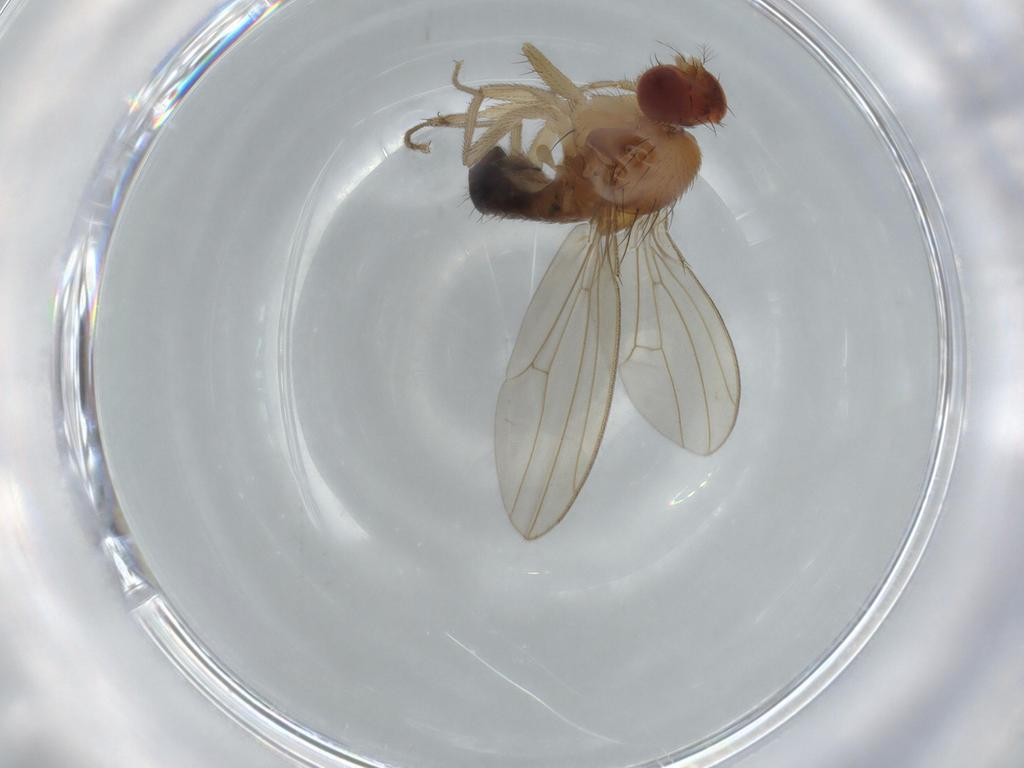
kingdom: Animalia
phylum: Arthropoda
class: Insecta
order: Diptera
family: Drosophilidae
